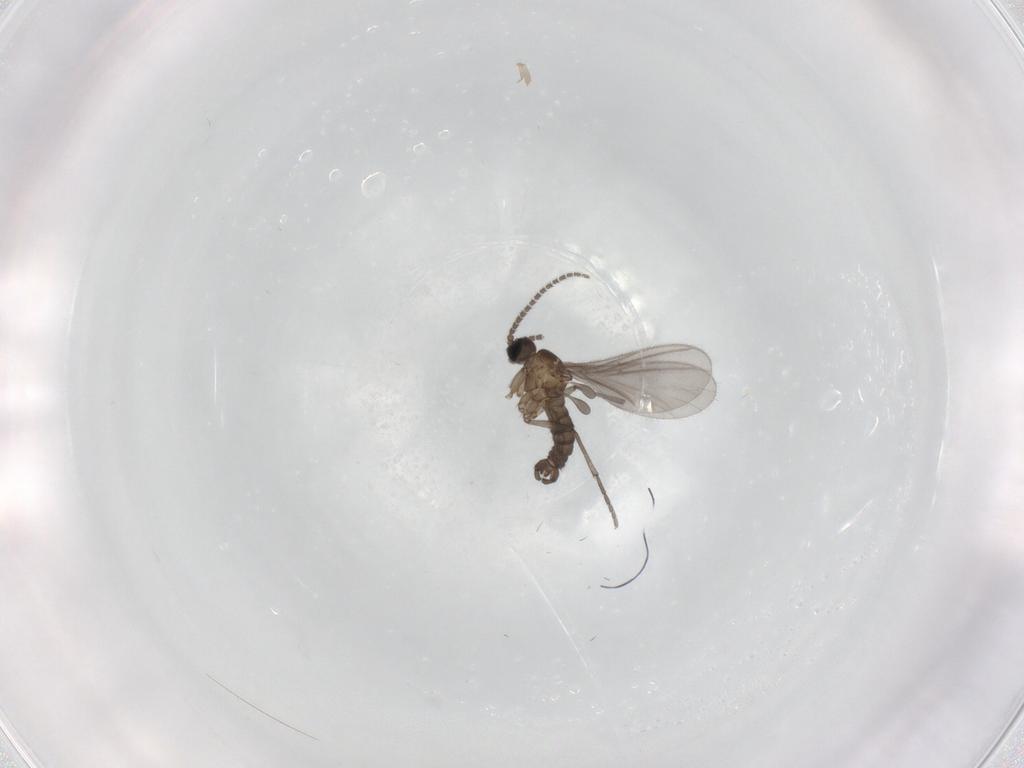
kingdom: Animalia
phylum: Arthropoda
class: Insecta
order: Diptera
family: Sciaridae
